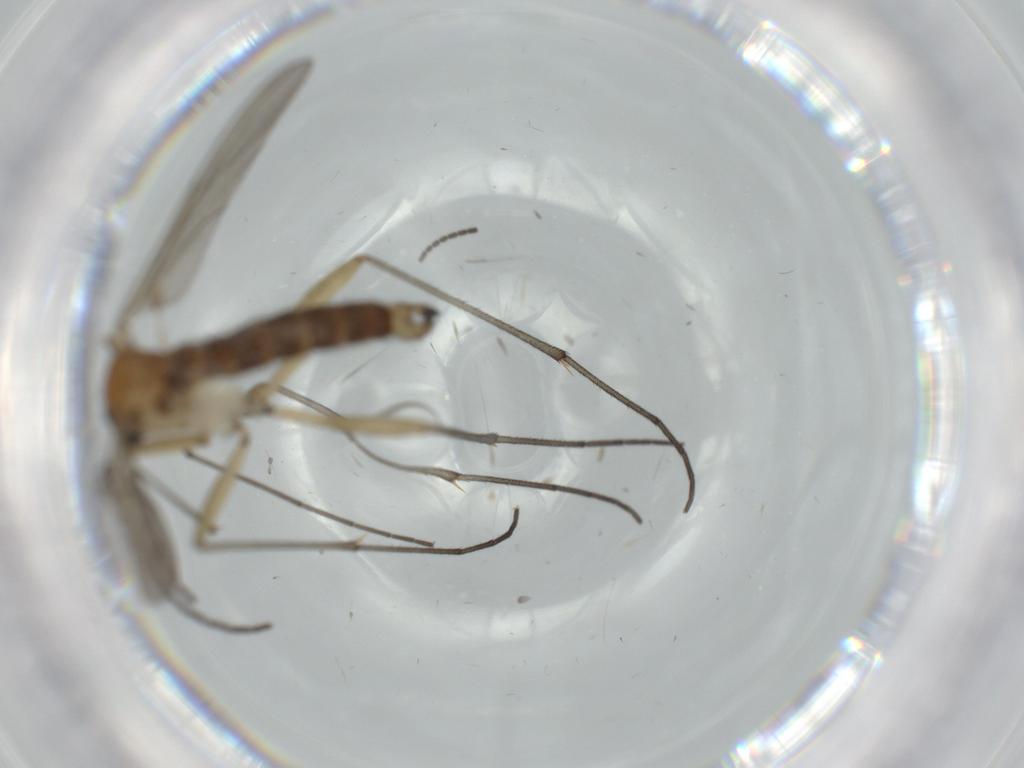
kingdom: Animalia
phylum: Arthropoda
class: Insecta
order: Diptera
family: Sciaridae
